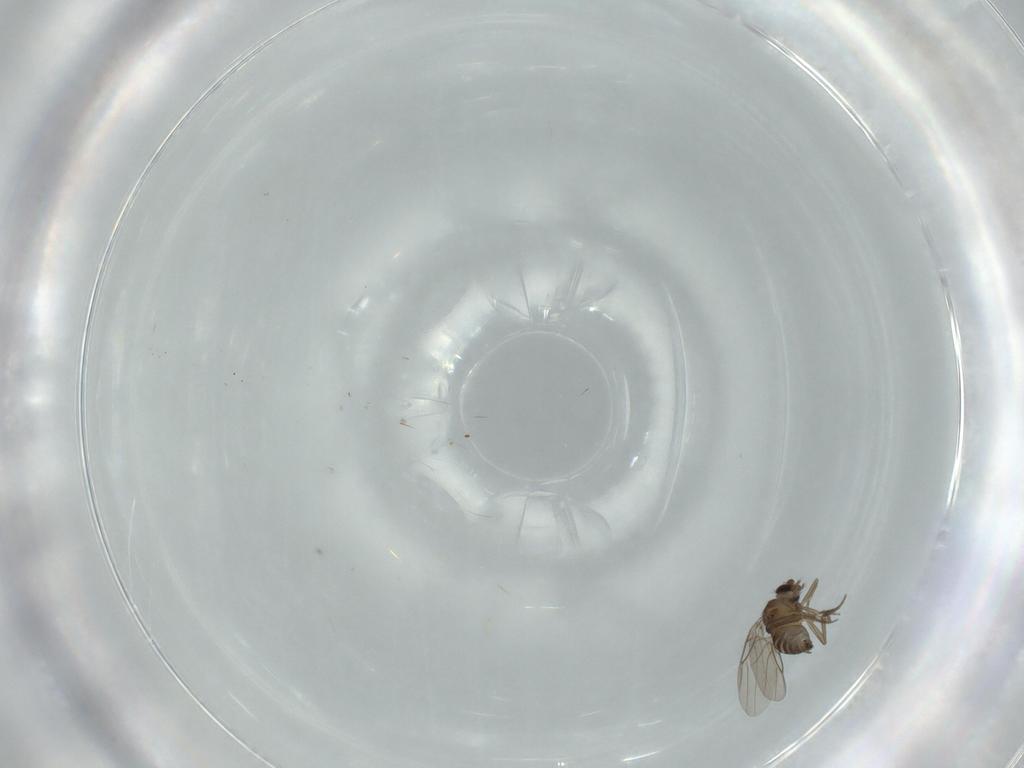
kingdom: Animalia
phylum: Arthropoda
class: Insecta
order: Diptera
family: Phoridae
